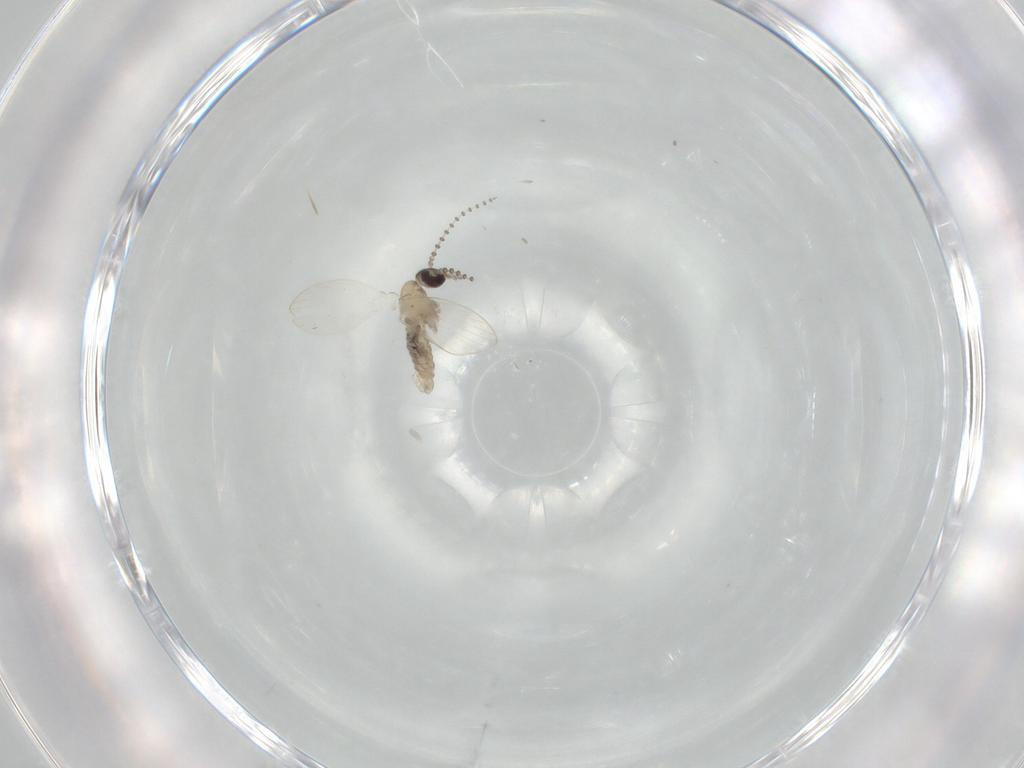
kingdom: Animalia
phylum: Arthropoda
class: Insecta
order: Diptera
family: Psychodidae
